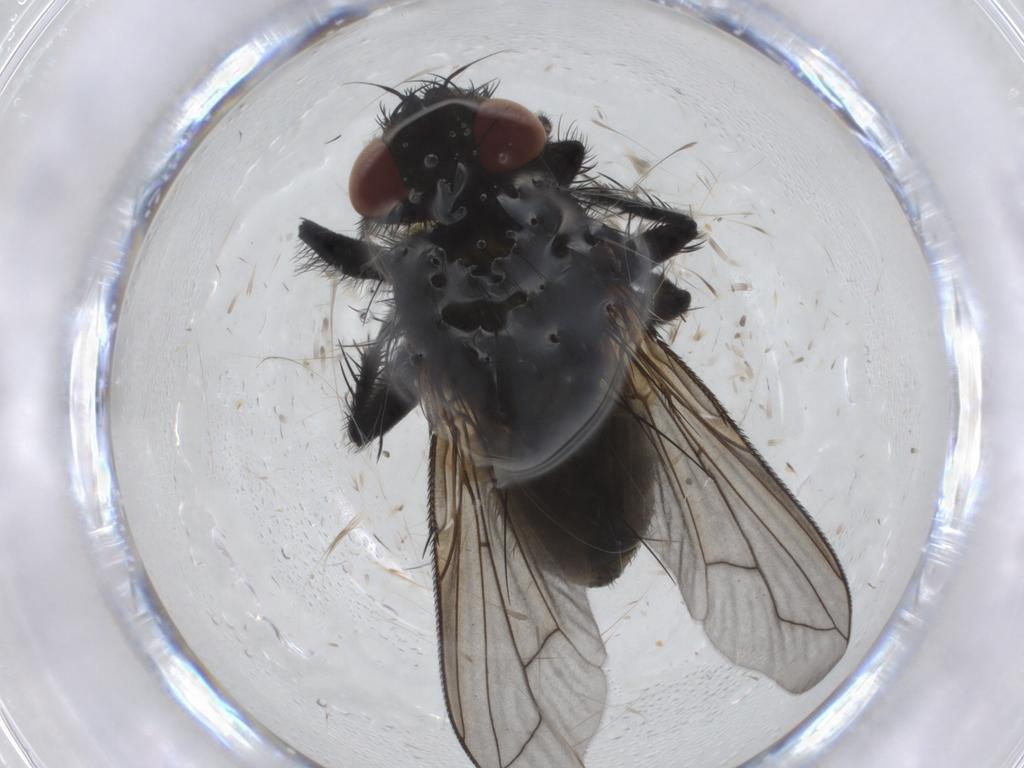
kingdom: Animalia
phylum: Arthropoda
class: Insecta
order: Diptera
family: Tachinidae
